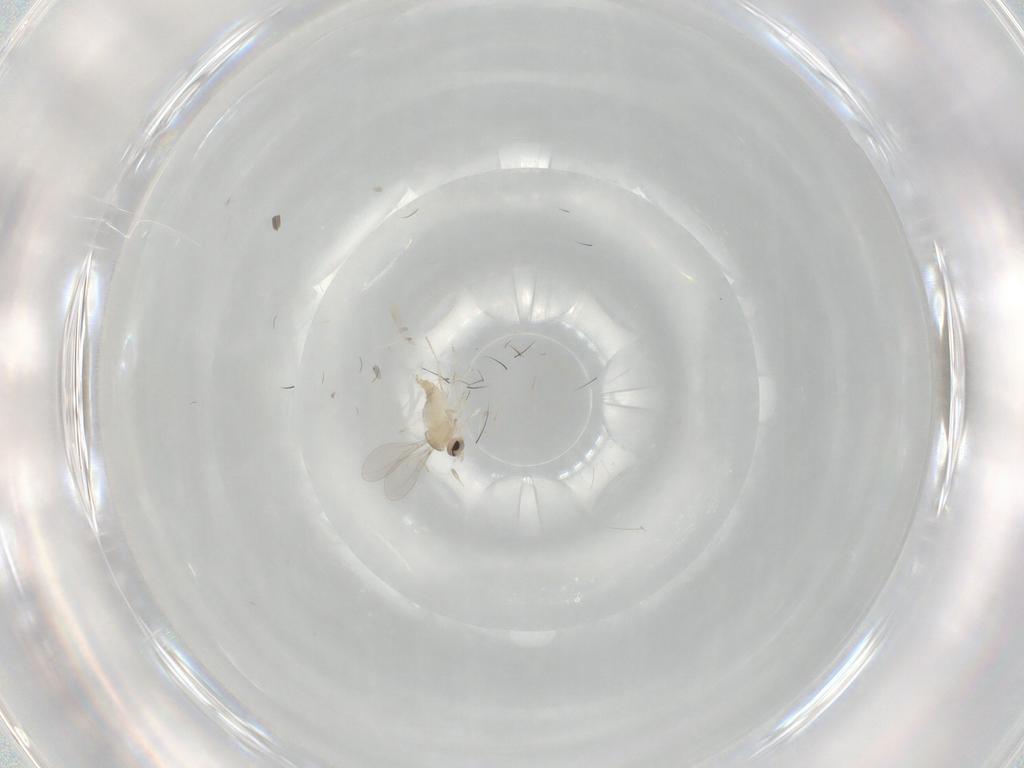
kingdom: Animalia
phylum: Arthropoda
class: Insecta
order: Diptera
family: Cecidomyiidae
